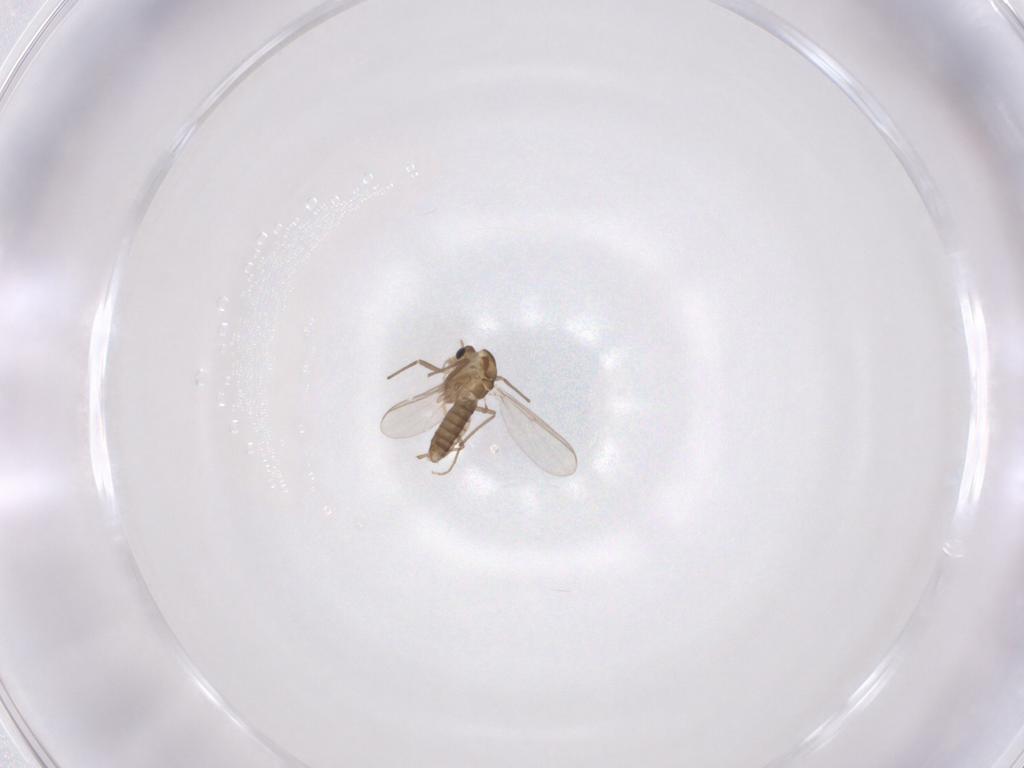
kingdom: Animalia
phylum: Arthropoda
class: Insecta
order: Diptera
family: Chironomidae
